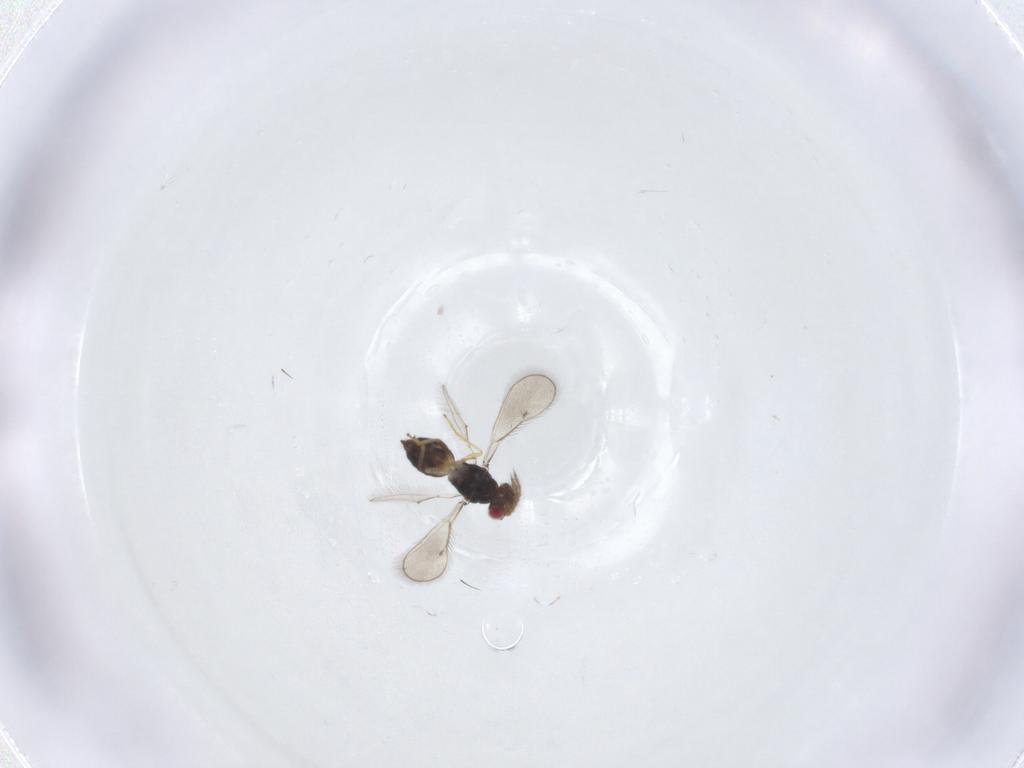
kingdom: Animalia
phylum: Arthropoda
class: Insecta
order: Hymenoptera
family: Eulophidae
